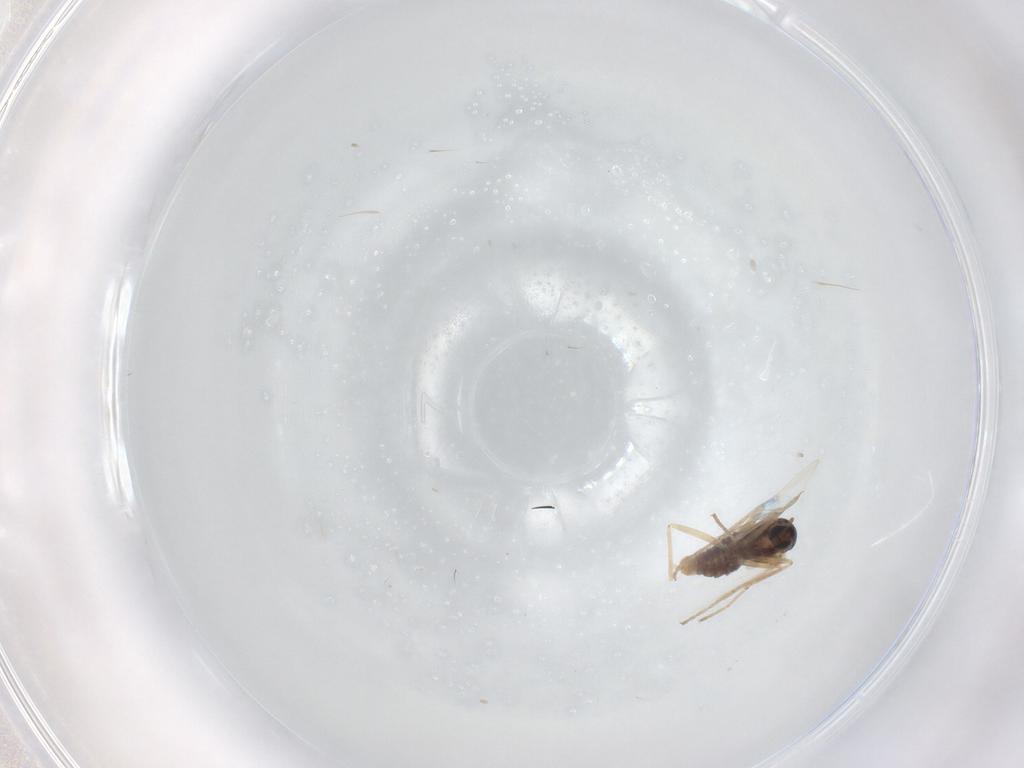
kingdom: Animalia
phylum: Arthropoda
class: Insecta
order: Diptera
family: Cecidomyiidae
